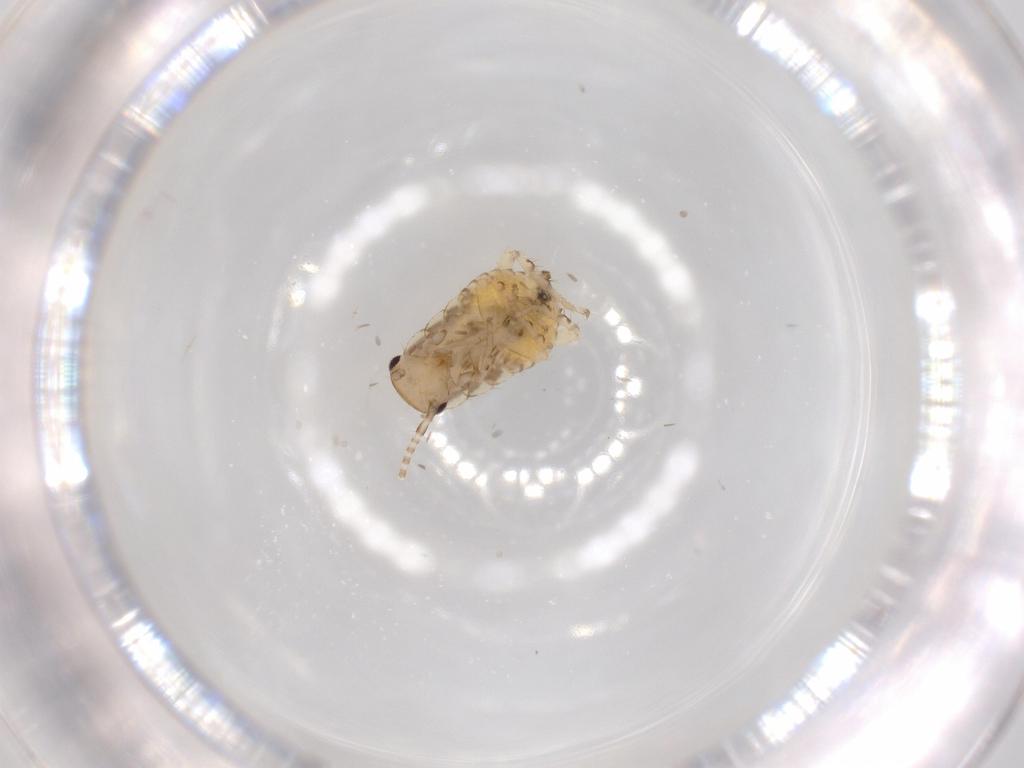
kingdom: Animalia
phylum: Arthropoda
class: Insecta
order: Blattodea
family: Ectobiidae
